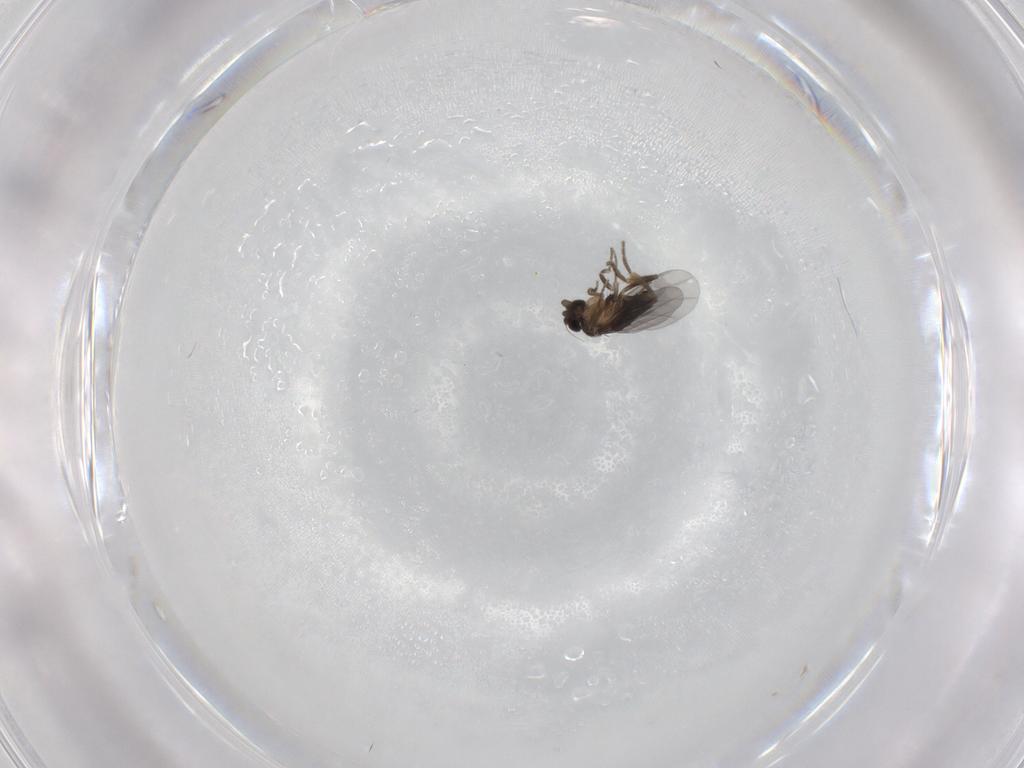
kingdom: Animalia
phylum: Arthropoda
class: Insecta
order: Diptera
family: Chironomidae
